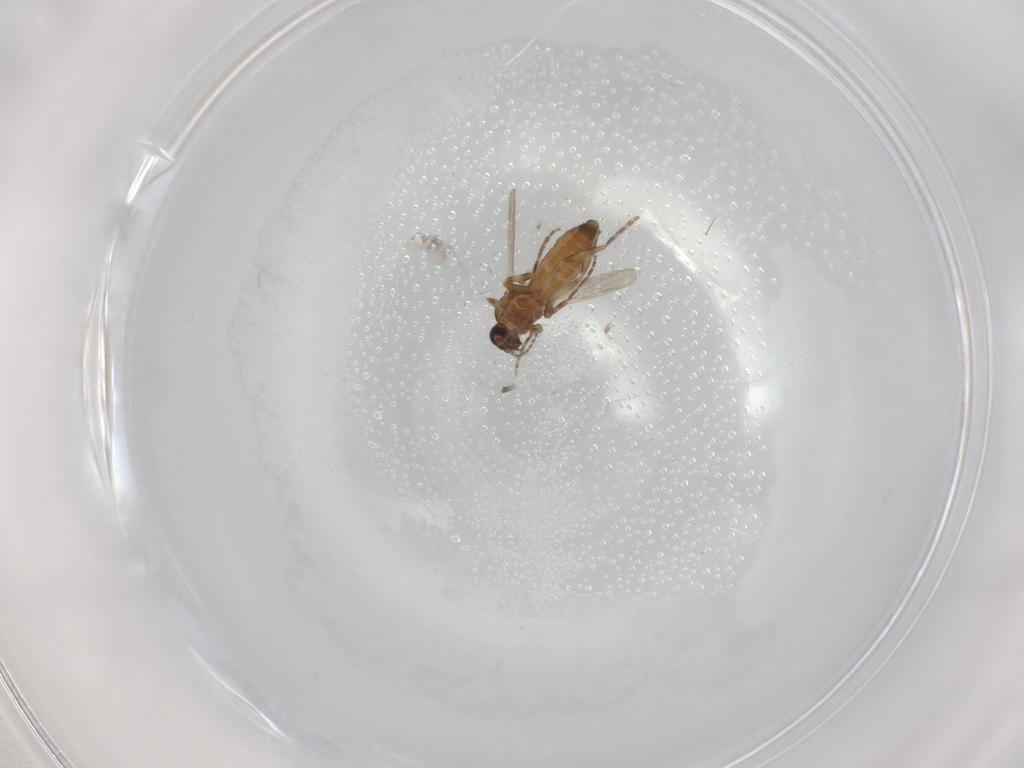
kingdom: Animalia
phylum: Arthropoda
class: Insecta
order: Diptera
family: Ceratopogonidae
